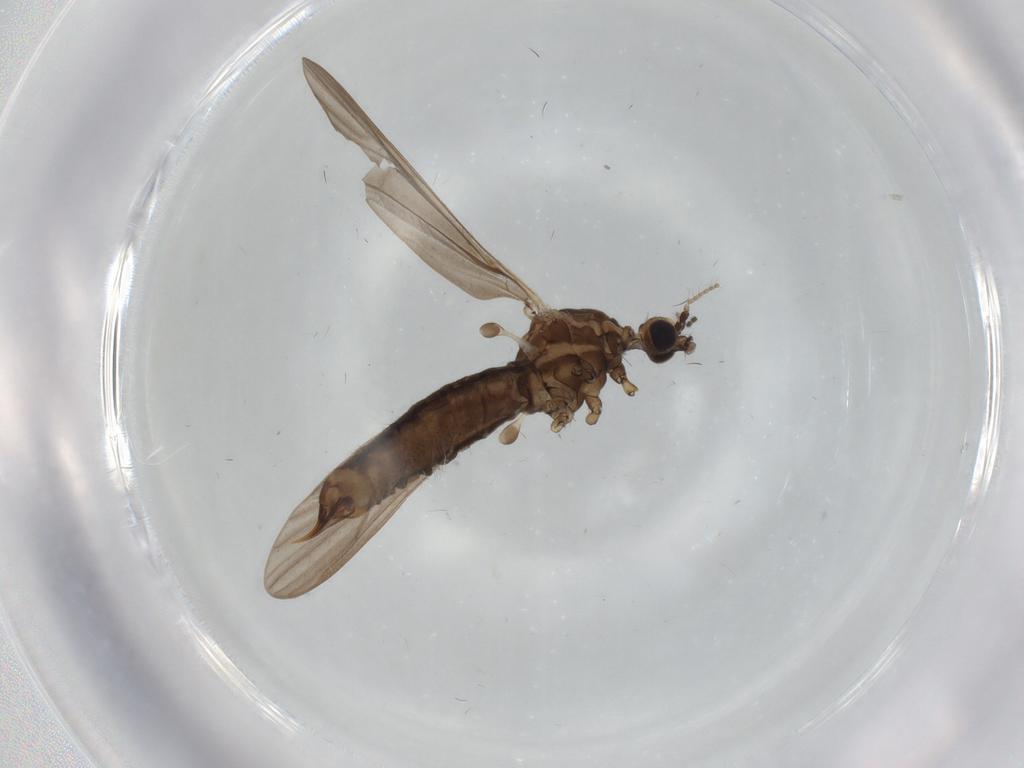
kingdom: Animalia
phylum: Arthropoda
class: Insecta
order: Diptera
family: Limoniidae
